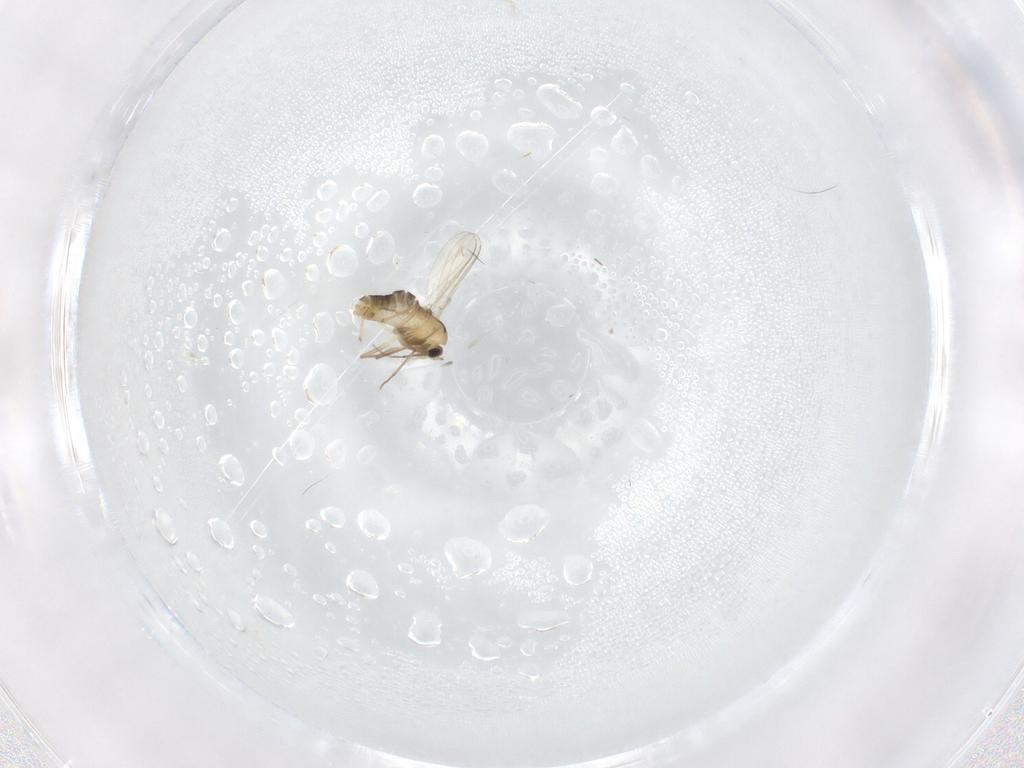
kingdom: Animalia
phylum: Arthropoda
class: Insecta
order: Diptera
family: Chironomidae
